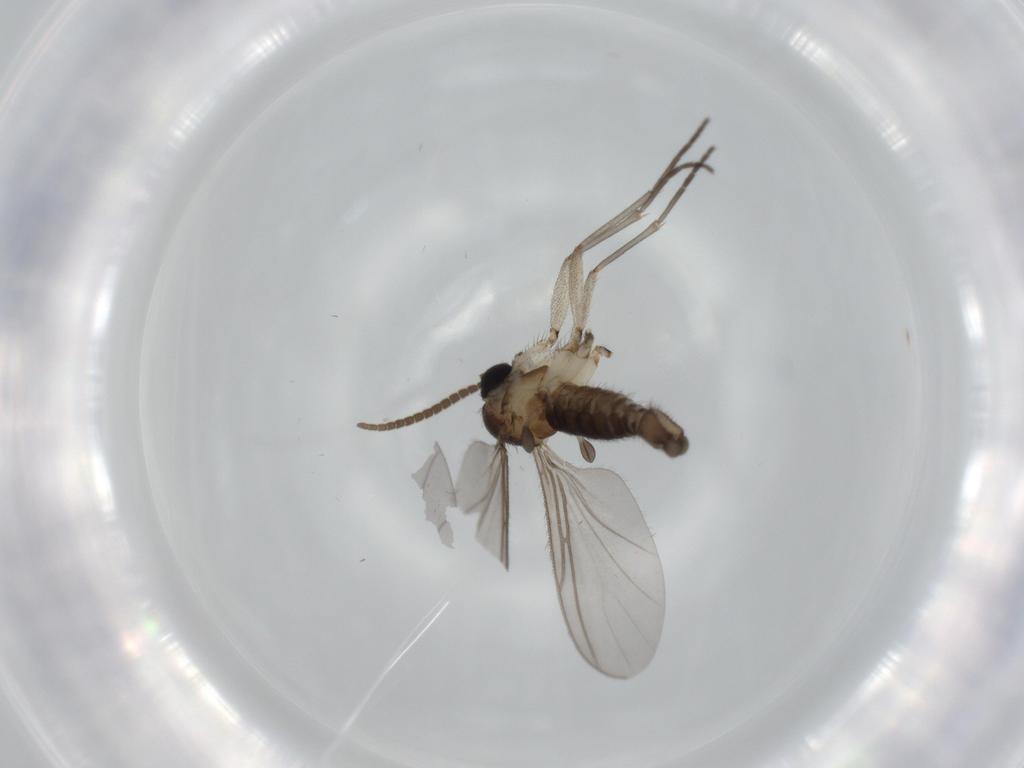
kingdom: Animalia
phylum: Arthropoda
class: Insecta
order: Diptera
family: Sciaridae
